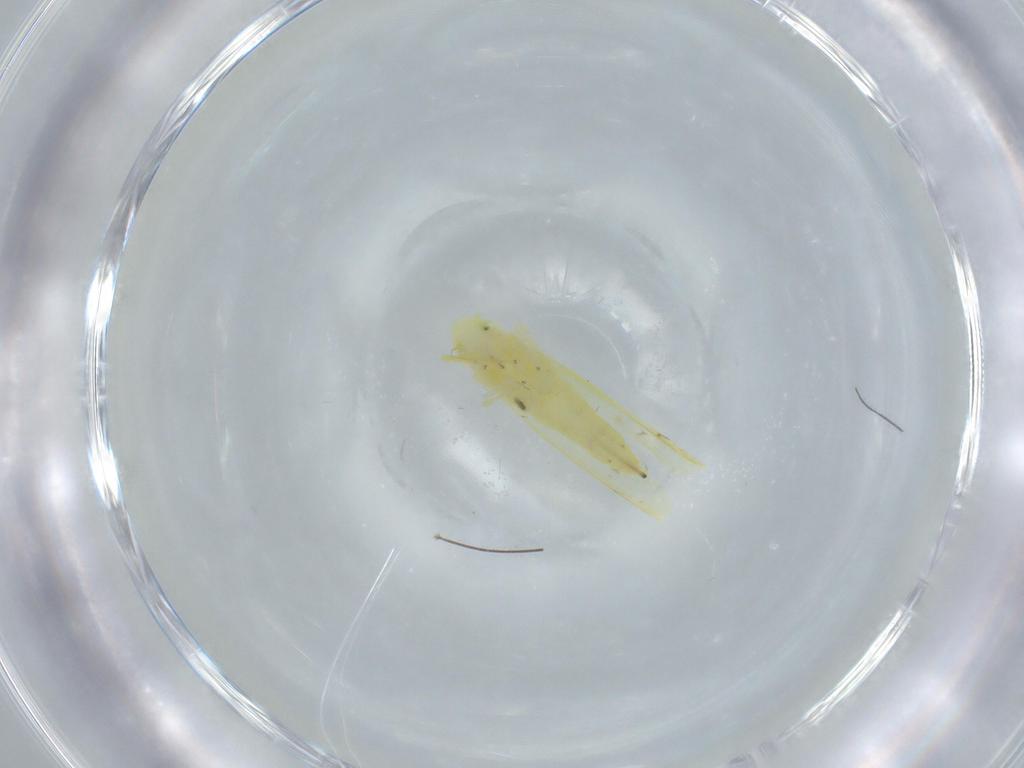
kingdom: Animalia
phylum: Arthropoda
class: Insecta
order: Hemiptera
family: Cicadellidae
